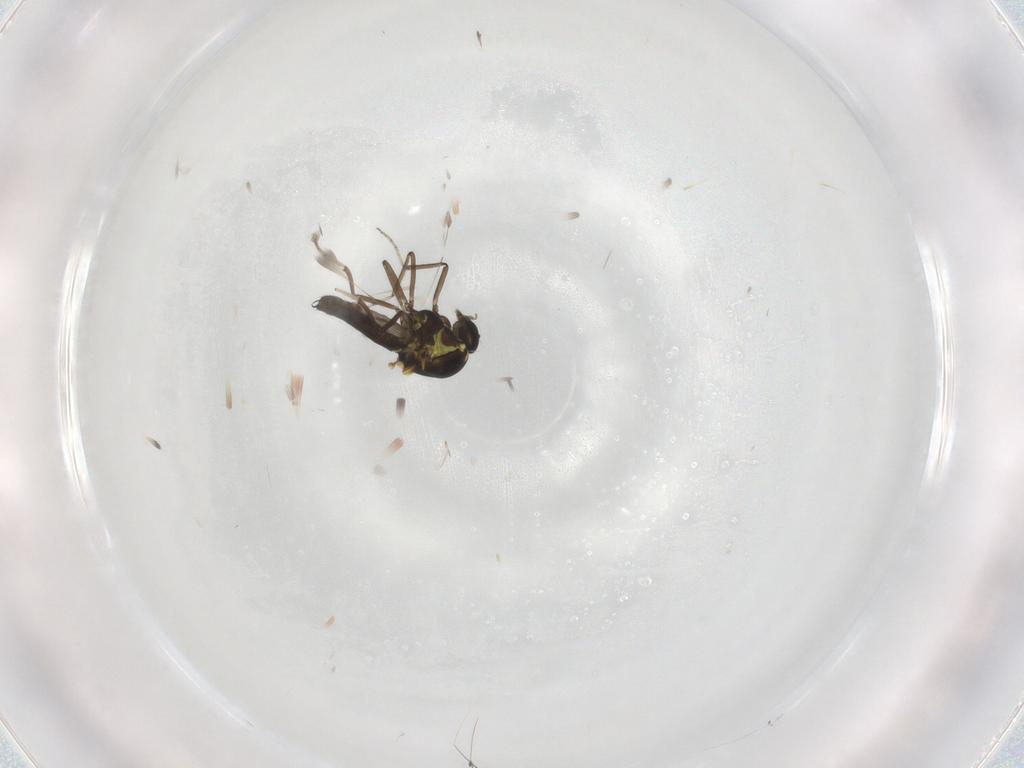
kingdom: Animalia
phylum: Arthropoda
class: Insecta
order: Diptera
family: Ceratopogonidae
